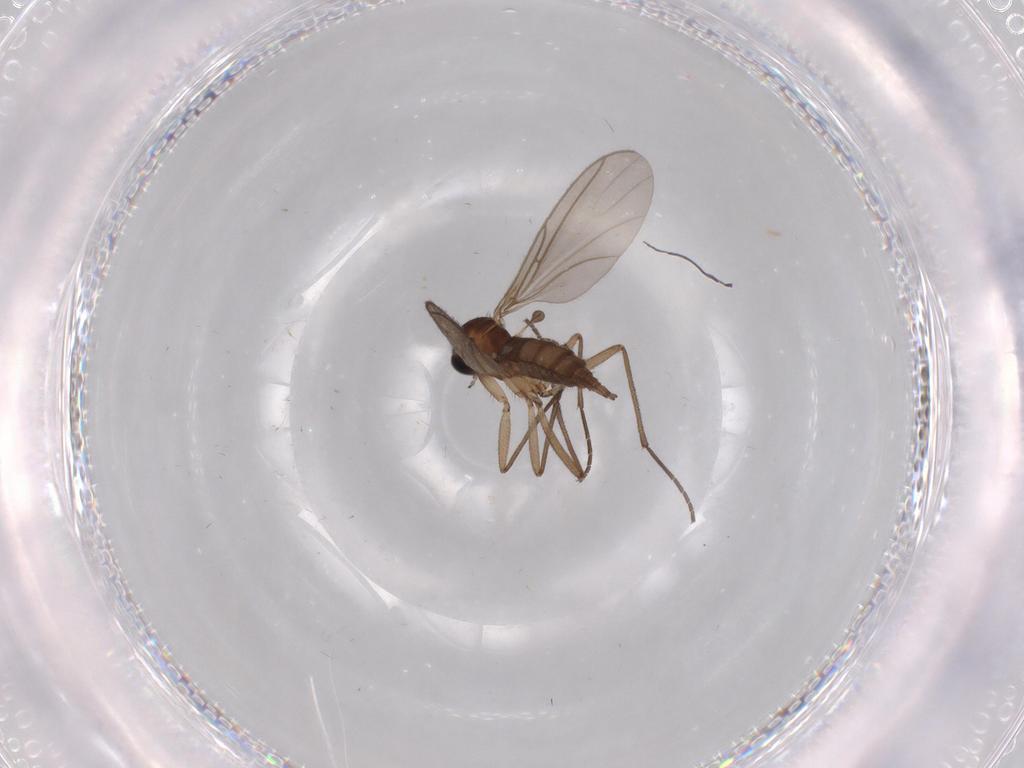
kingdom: Animalia
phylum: Arthropoda
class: Insecta
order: Diptera
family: Sciaridae
